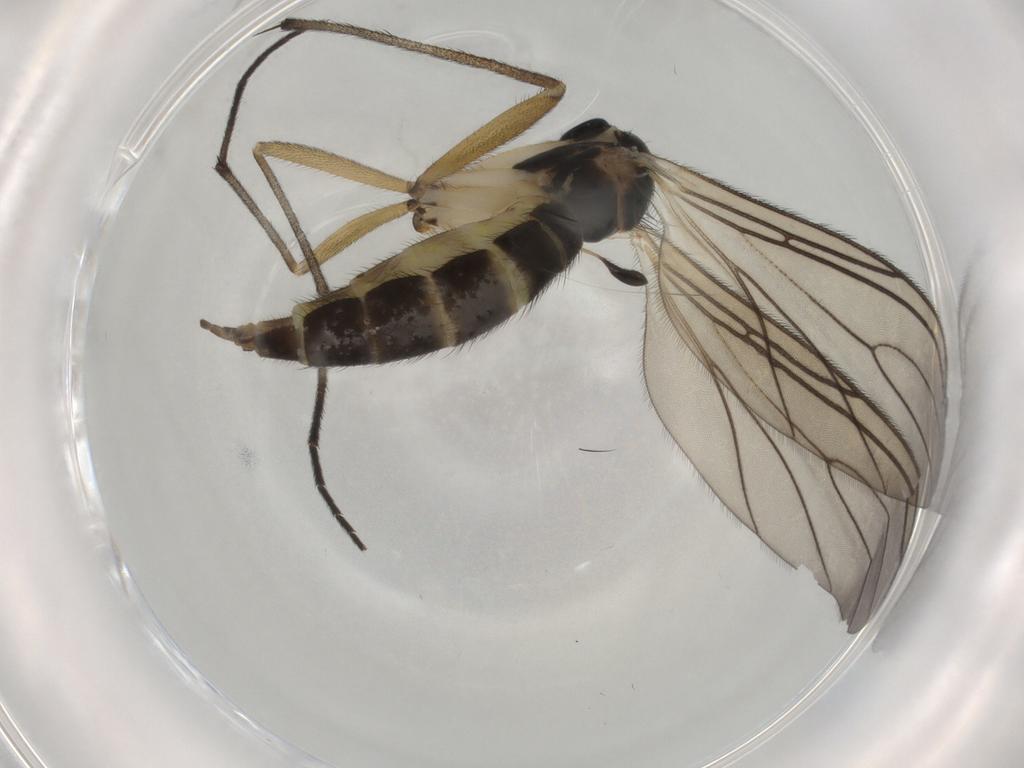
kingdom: Animalia
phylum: Arthropoda
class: Insecta
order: Diptera
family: Sciaridae
